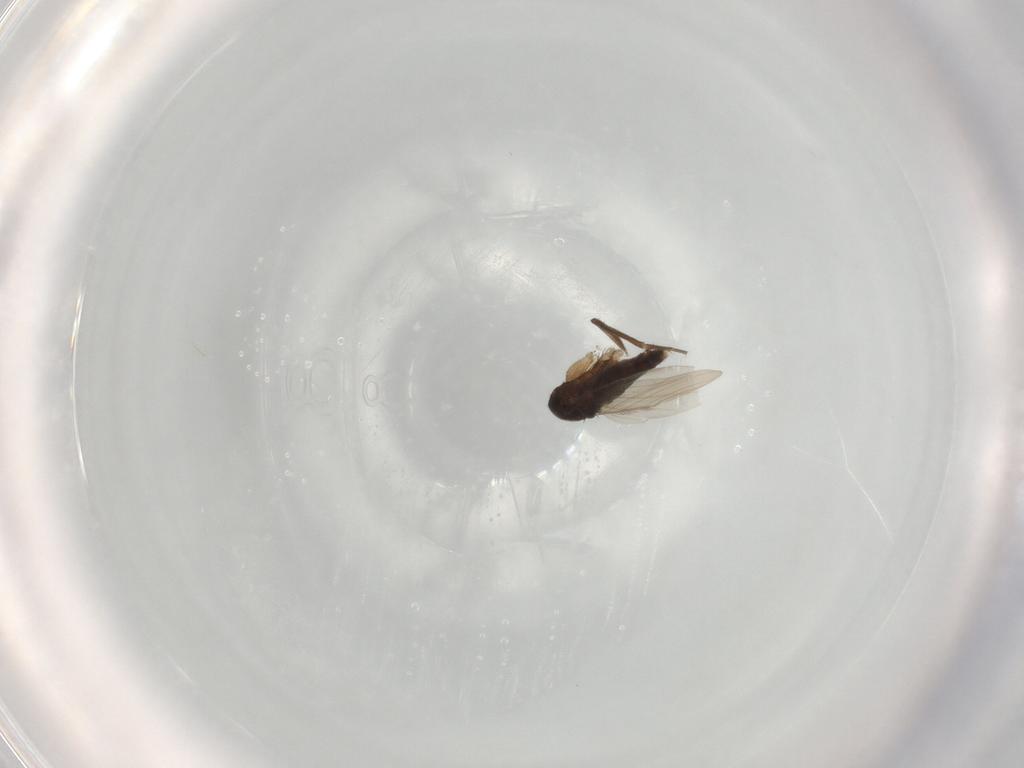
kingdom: Animalia
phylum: Arthropoda
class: Insecta
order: Diptera
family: Phoridae
